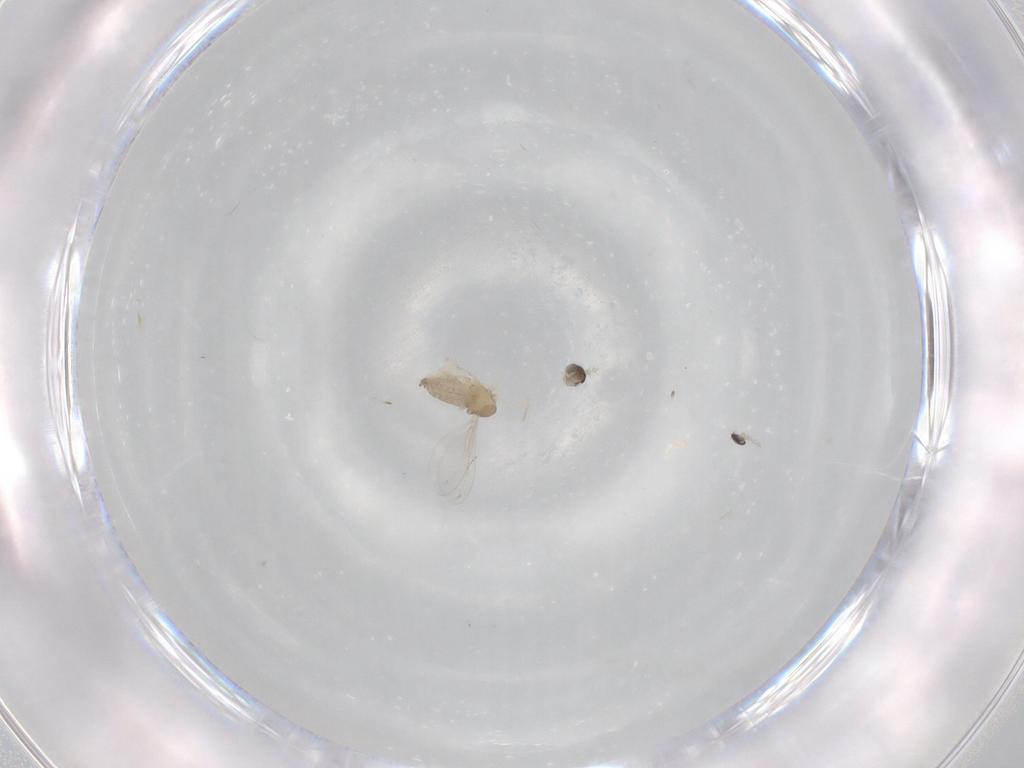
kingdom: Animalia
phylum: Arthropoda
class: Insecta
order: Diptera
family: Cecidomyiidae
